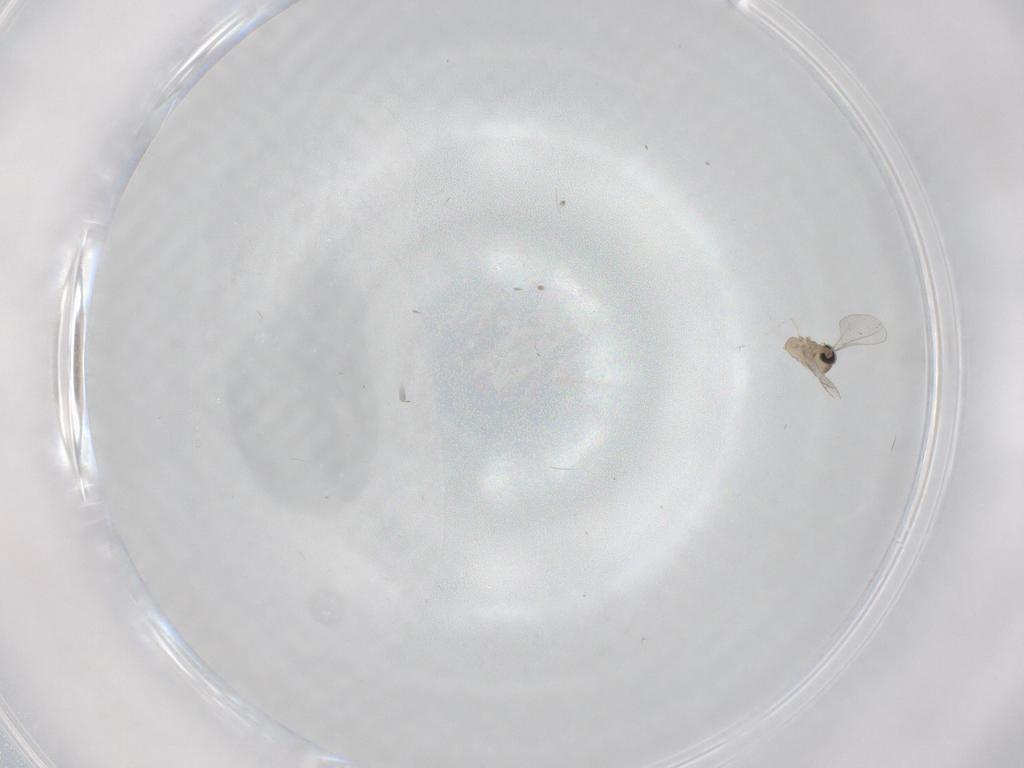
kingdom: Animalia
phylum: Arthropoda
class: Insecta
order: Diptera
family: Cecidomyiidae
